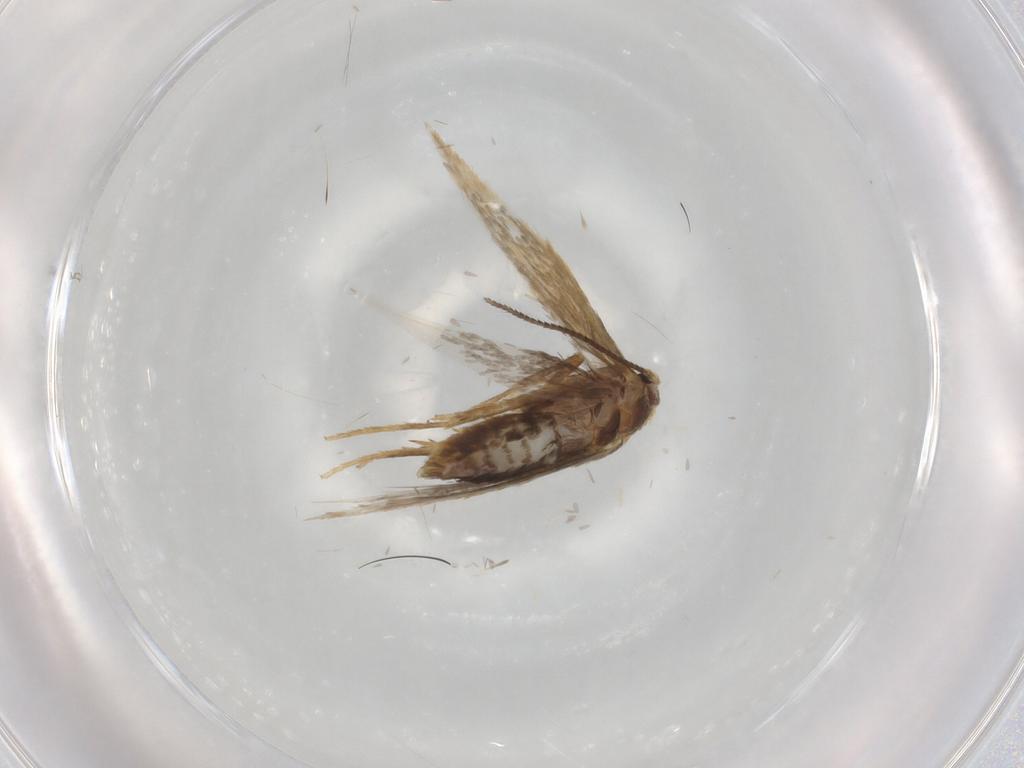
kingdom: Animalia
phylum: Arthropoda
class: Insecta
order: Lepidoptera
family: Nepticulidae
